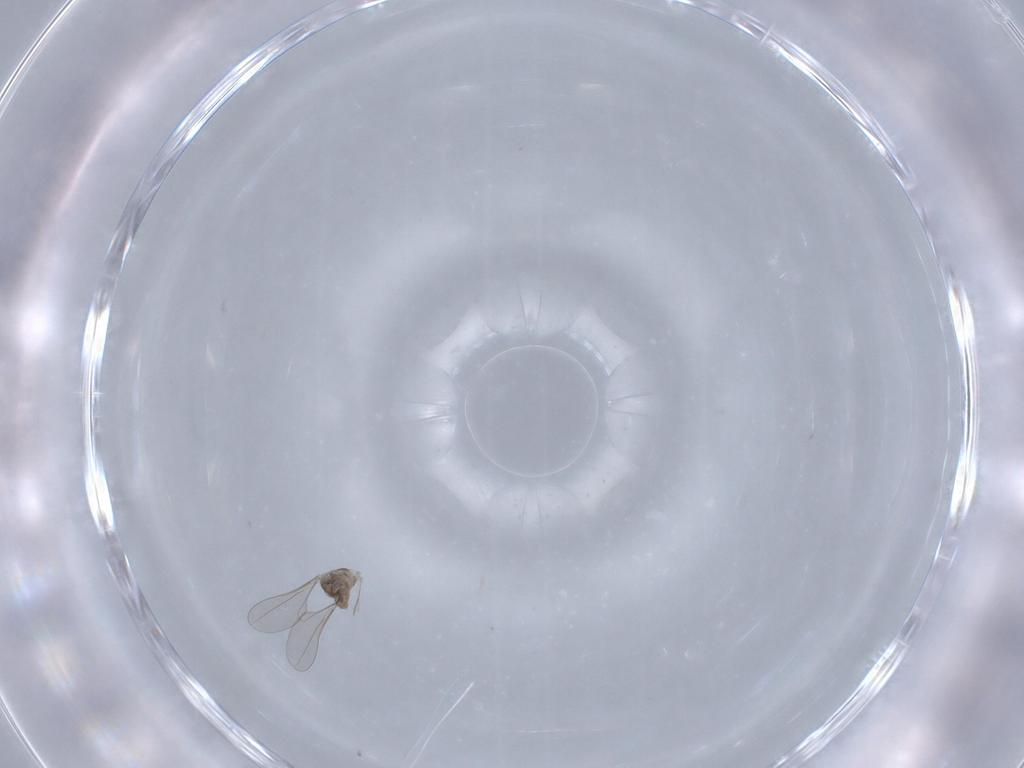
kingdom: Animalia
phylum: Arthropoda
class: Insecta
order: Diptera
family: Cecidomyiidae
